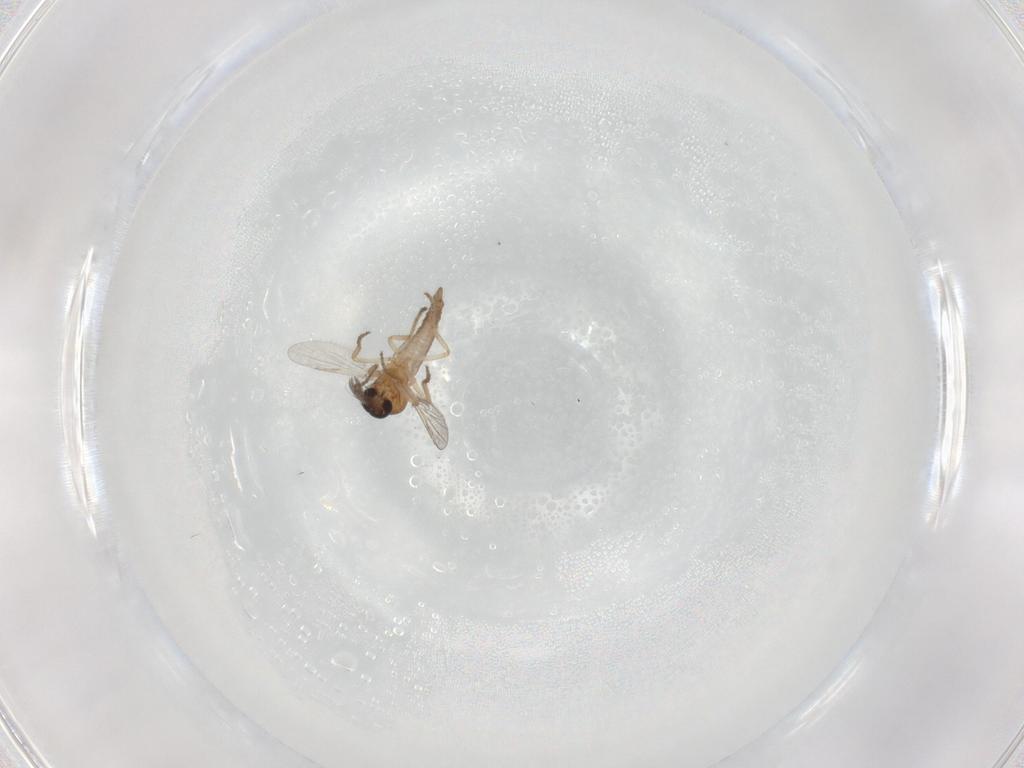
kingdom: Animalia
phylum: Arthropoda
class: Insecta
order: Diptera
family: Ceratopogonidae
